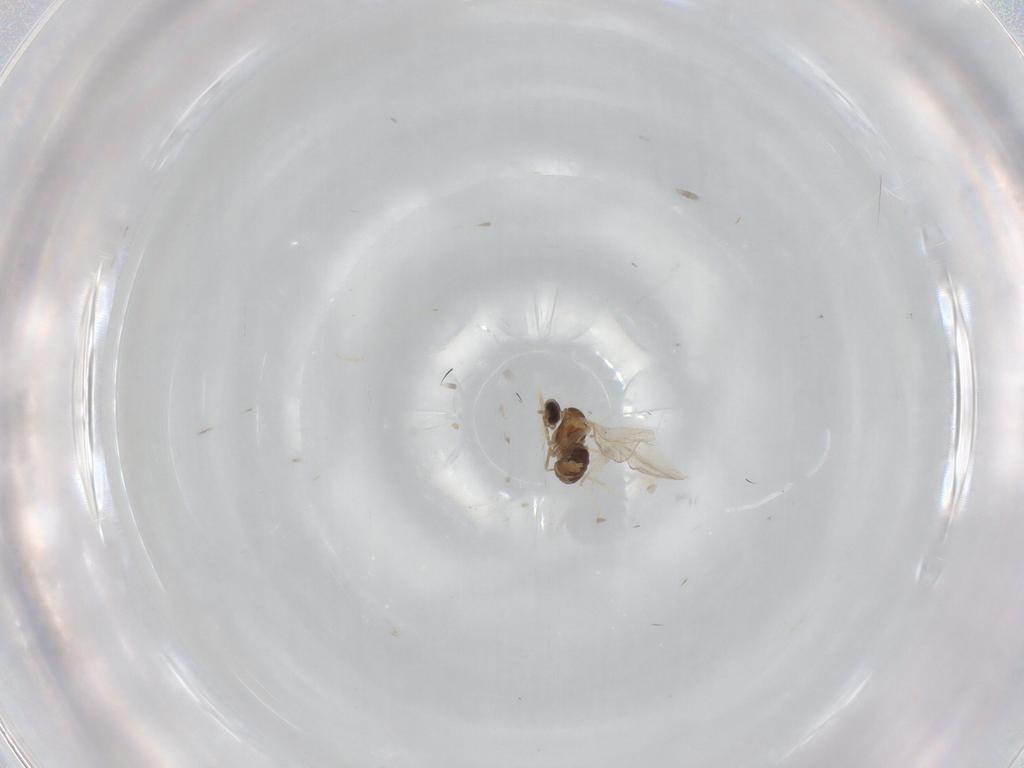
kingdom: Animalia
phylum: Arthropoda
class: Insecta
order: Diptera
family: Cecidomyiidae
